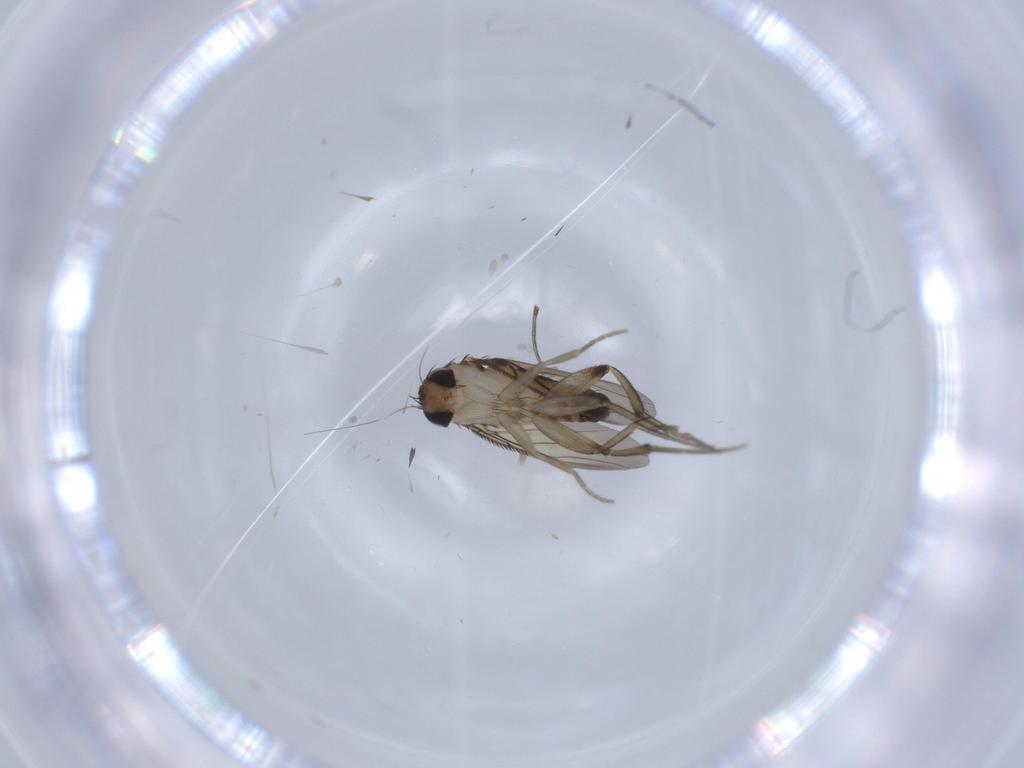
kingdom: Animalia
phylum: Arthropoda
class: Insecta
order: Diptera
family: Phoridae
